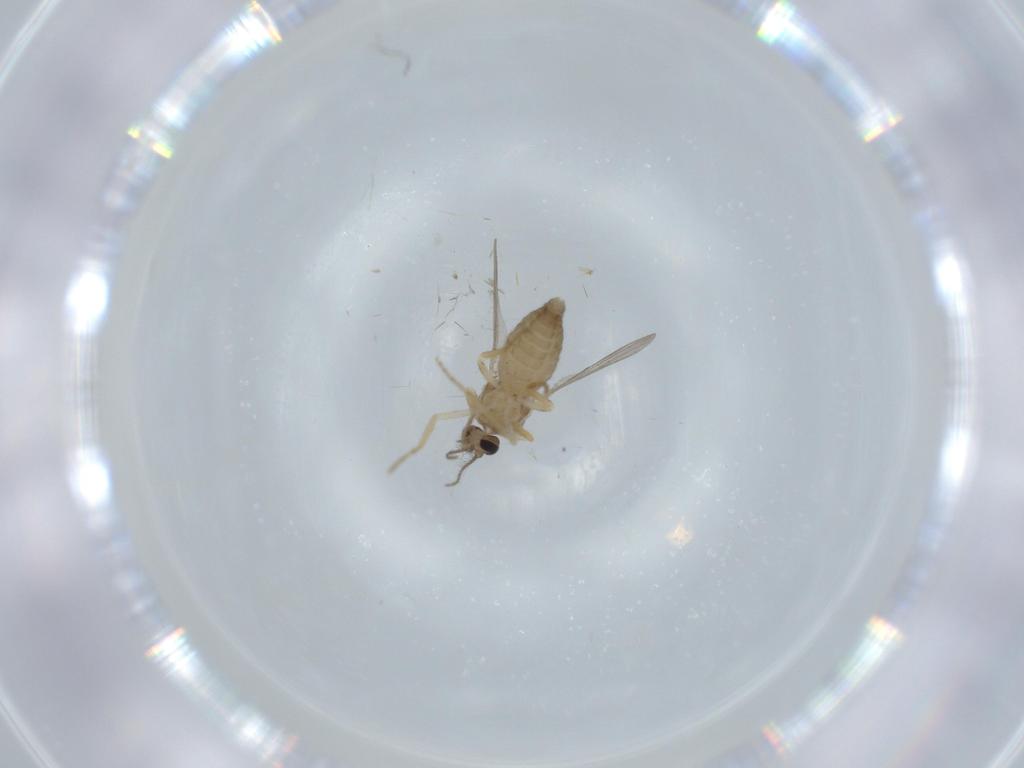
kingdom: Animalia
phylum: Arthropoda
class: Insecta
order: Diptera
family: Ceratopogonidae
